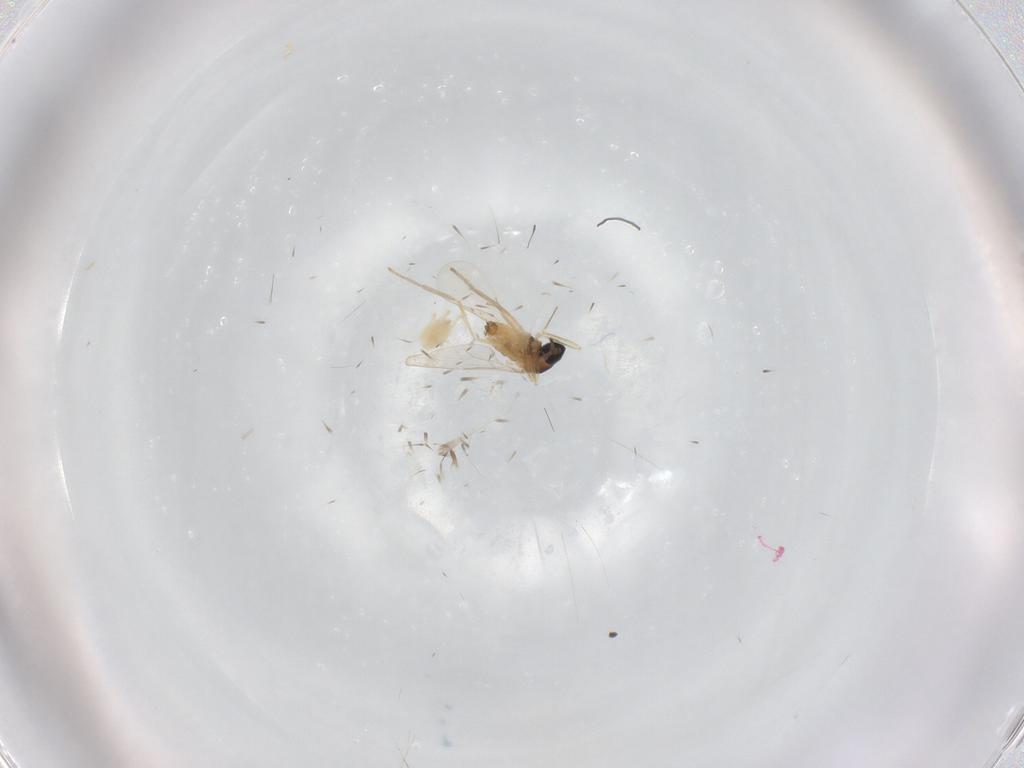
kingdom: Animalia
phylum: Arthropoda
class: Insecta
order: Diptera
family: Cecidomyiidae
